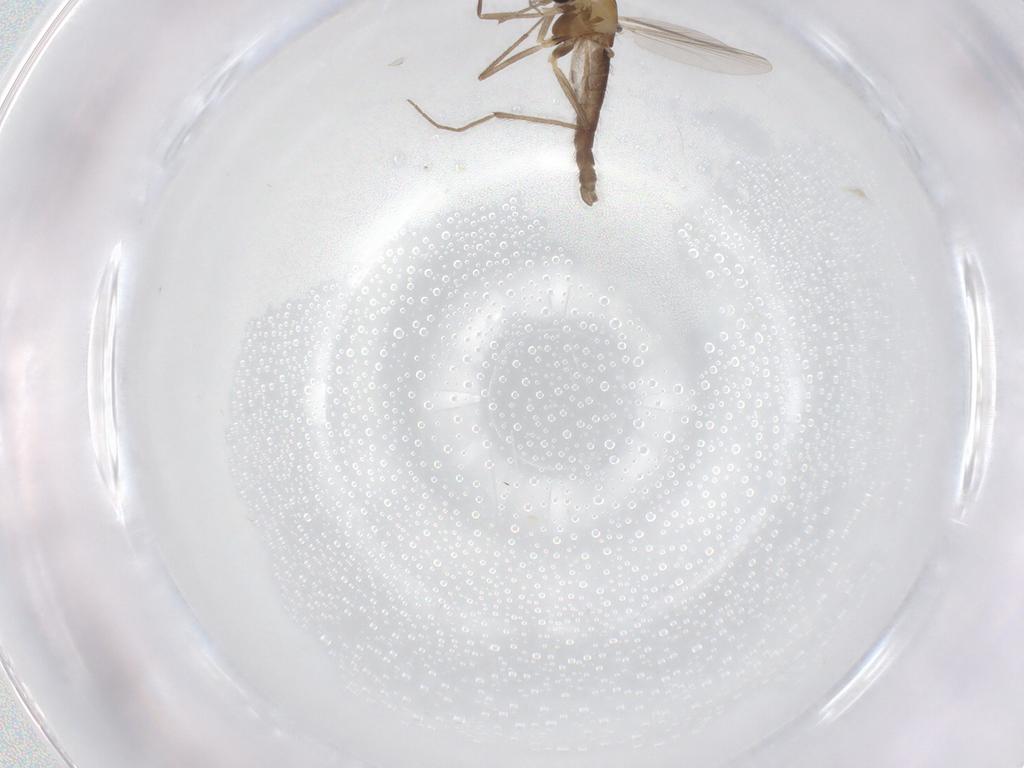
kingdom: Animalia
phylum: Arthropoda
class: Insecta
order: Diptera
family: Chironomidae
